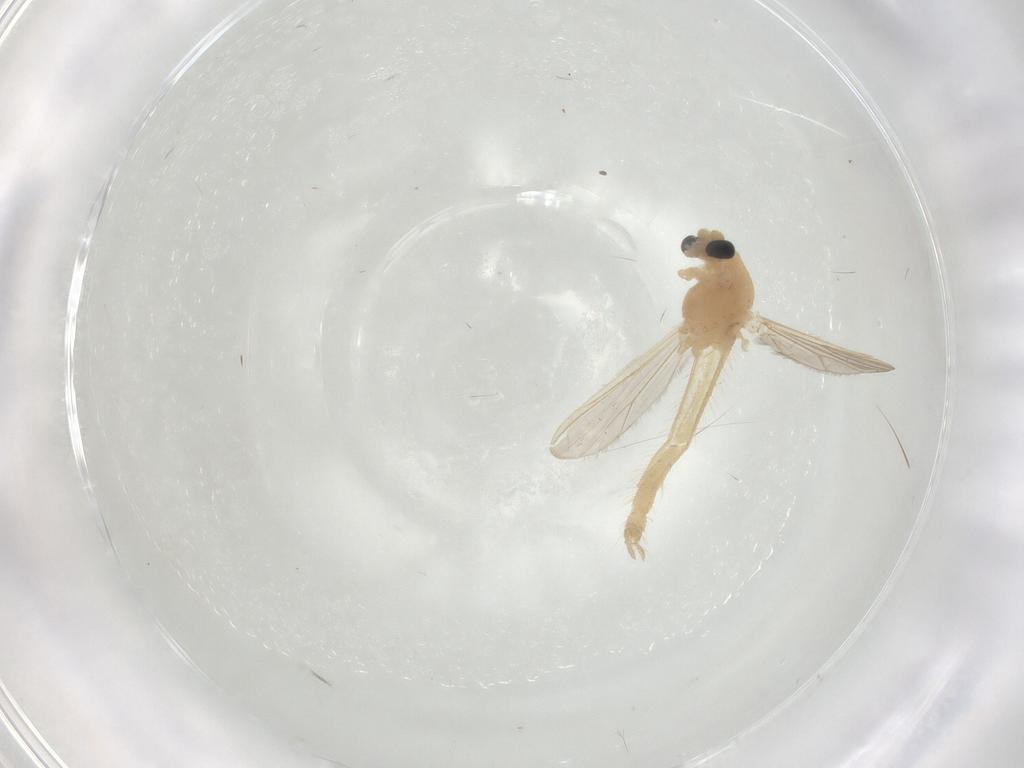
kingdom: Animalia
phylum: Arthropoda
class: Insecta
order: Diptera
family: Chironomidae
